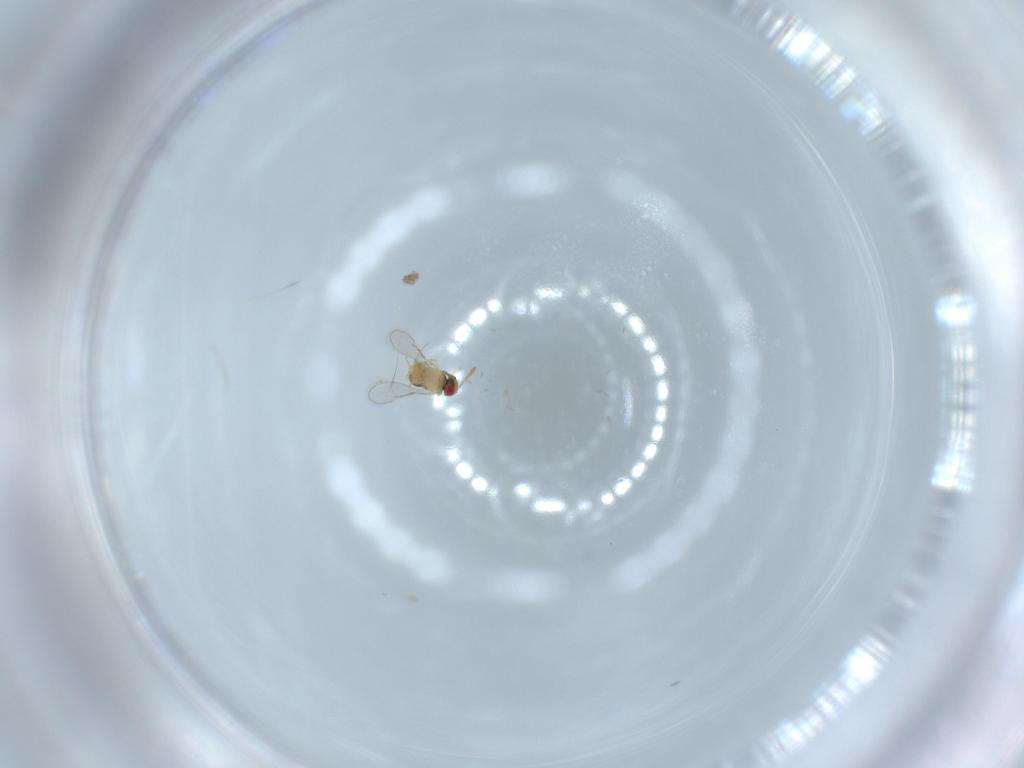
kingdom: Animalia
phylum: Arthropoda
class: Insecta
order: Hymenoptera
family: Aphelinidae
